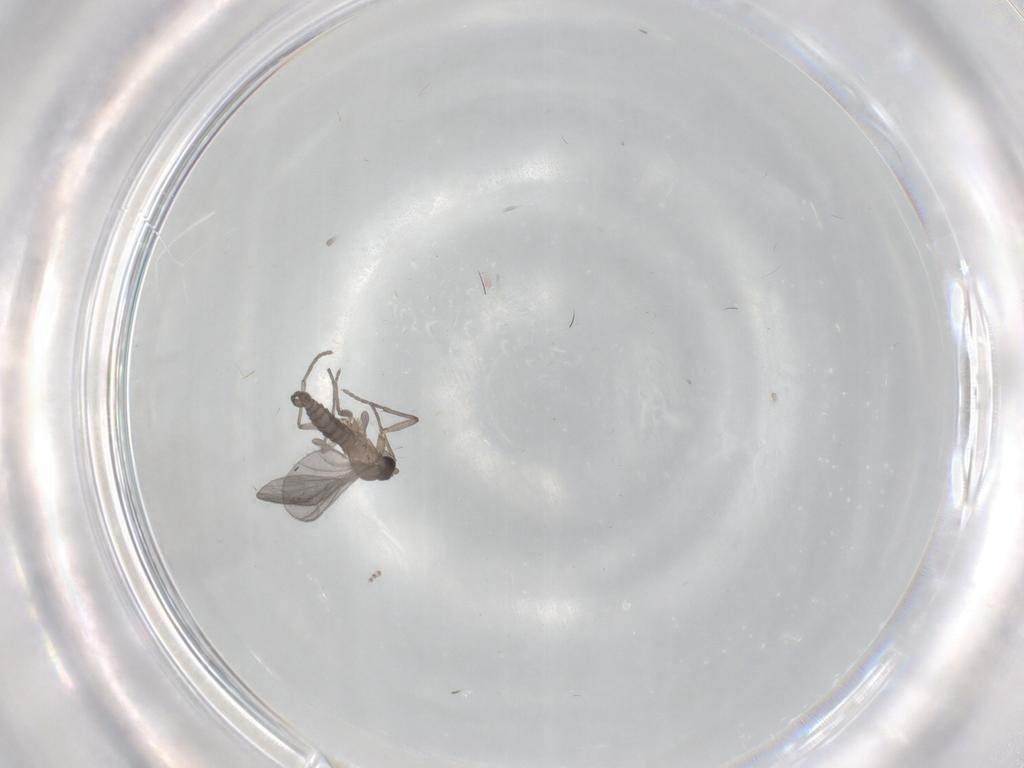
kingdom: Animalia
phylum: Arthropoda
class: Insecta
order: Diptera
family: Sciaridae
